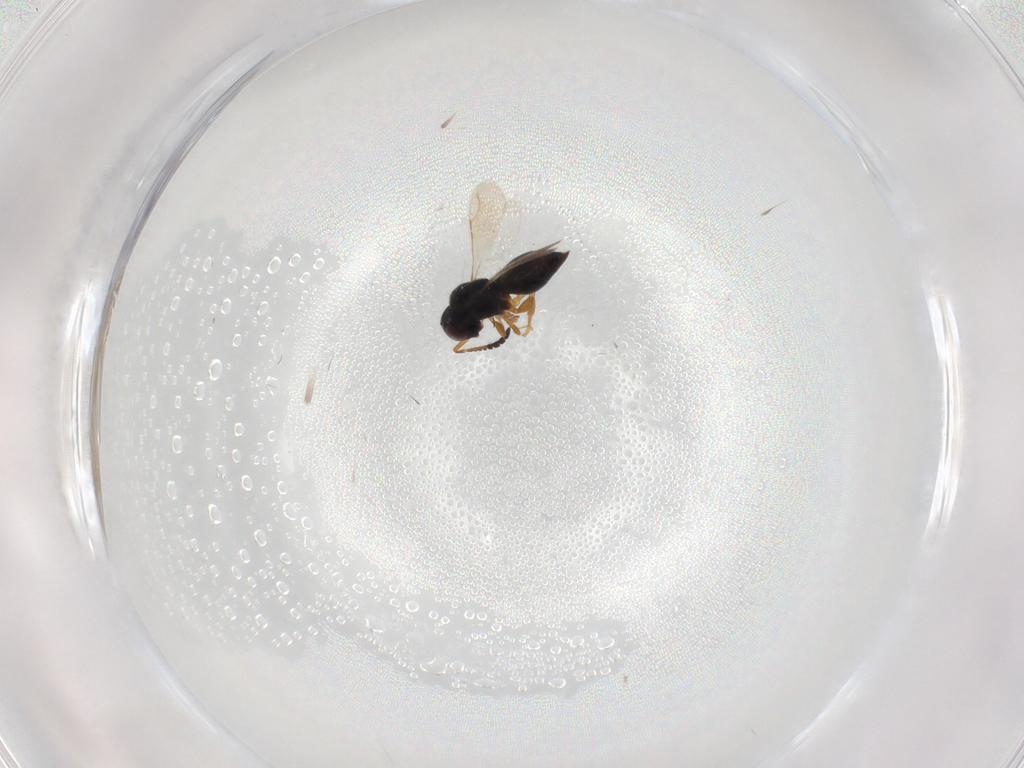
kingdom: Animalia
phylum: Arthropoda
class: Insecta
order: Hymenoptera
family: Ceraphronidae
